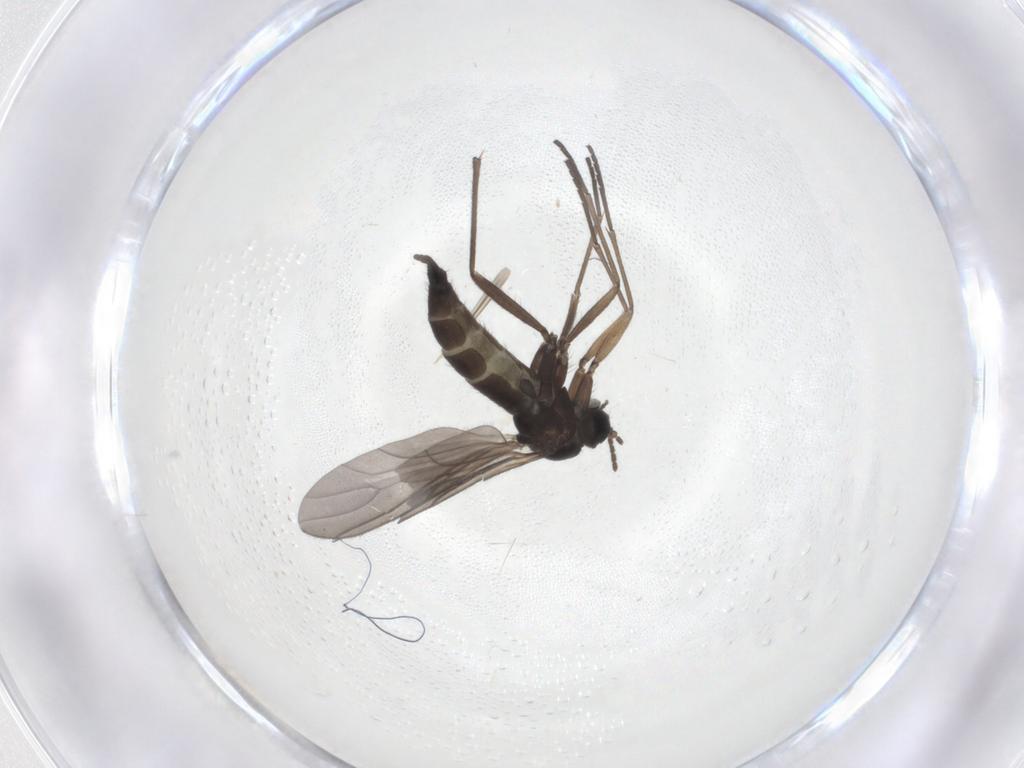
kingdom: Animalia
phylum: Arthropoda
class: Insecta
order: Diptera
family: Sciaridae
